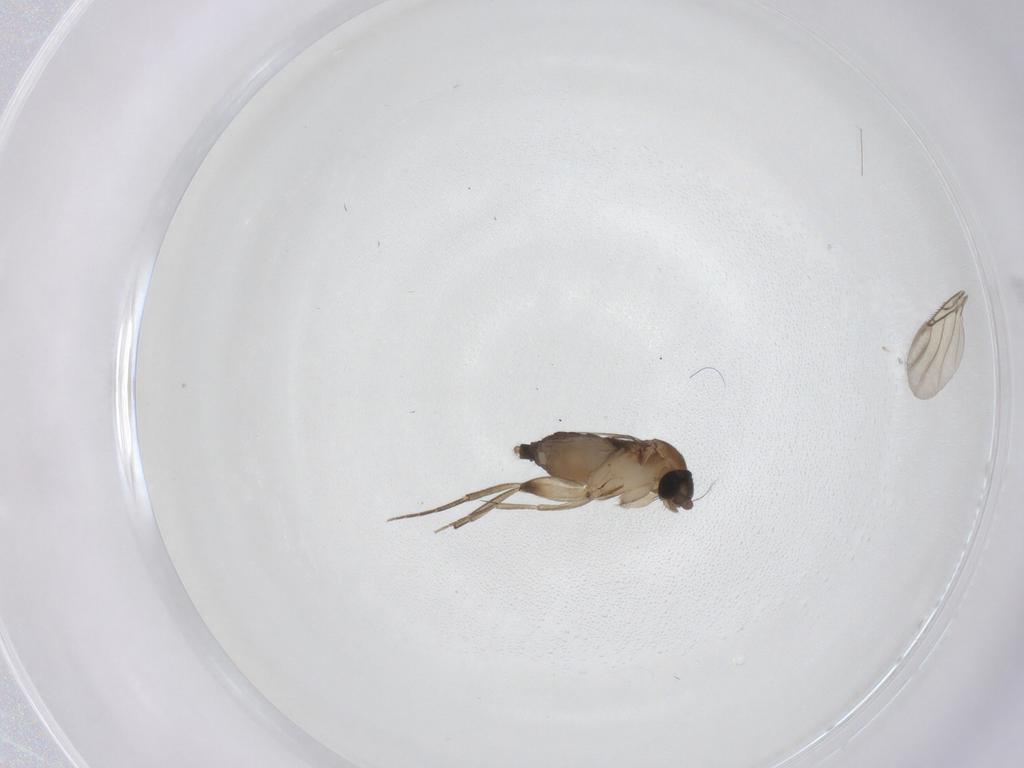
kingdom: Animalia
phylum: Arthropoda
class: Insecta
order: Diptera
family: Phoridae
